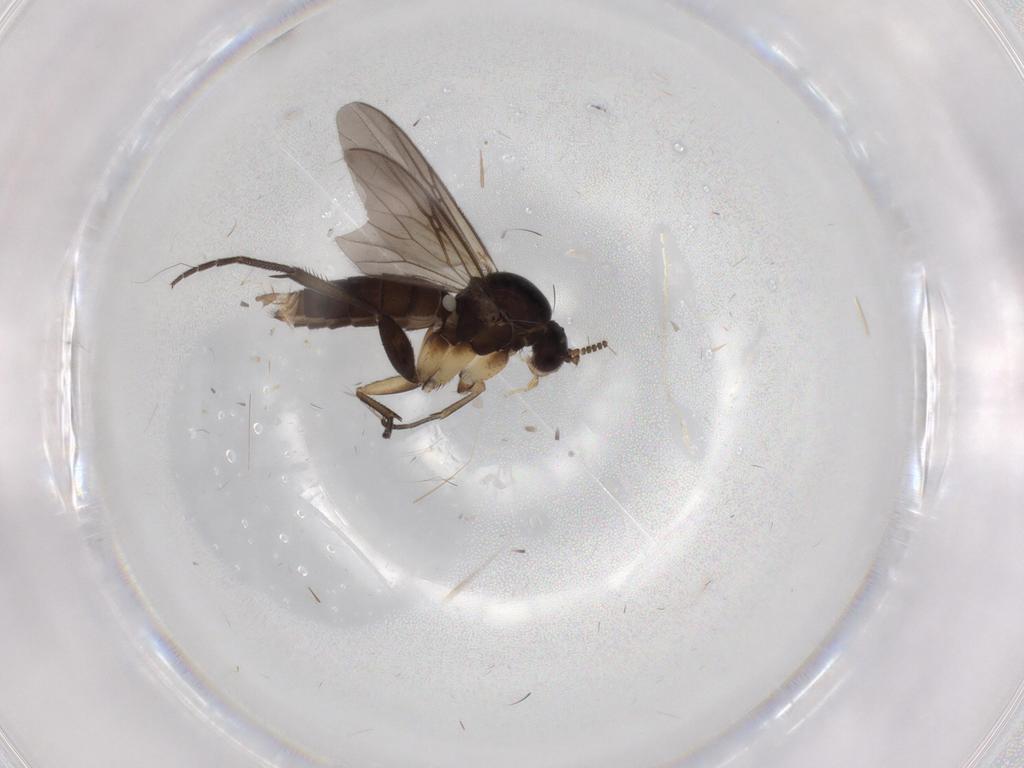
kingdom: Animalia
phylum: Arthropoda
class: Insecta
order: Diptera
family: Mycetophilidae
